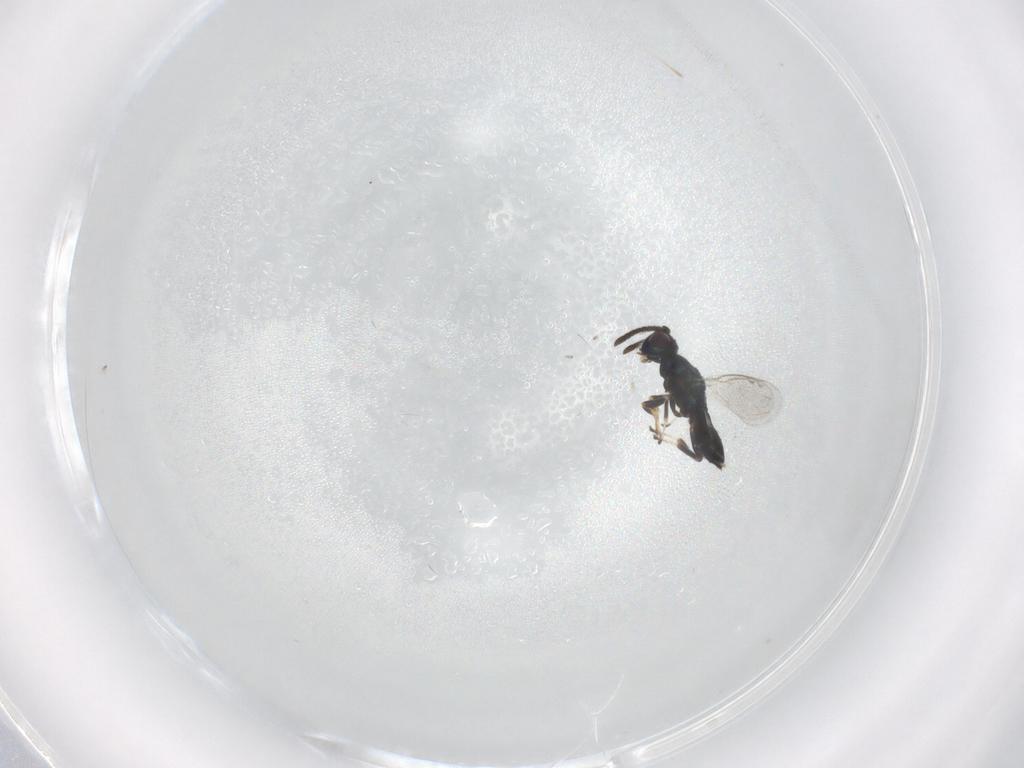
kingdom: Animalia
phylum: Arthropoda
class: Insecta
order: Hymenoptera
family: Eupelmidae
